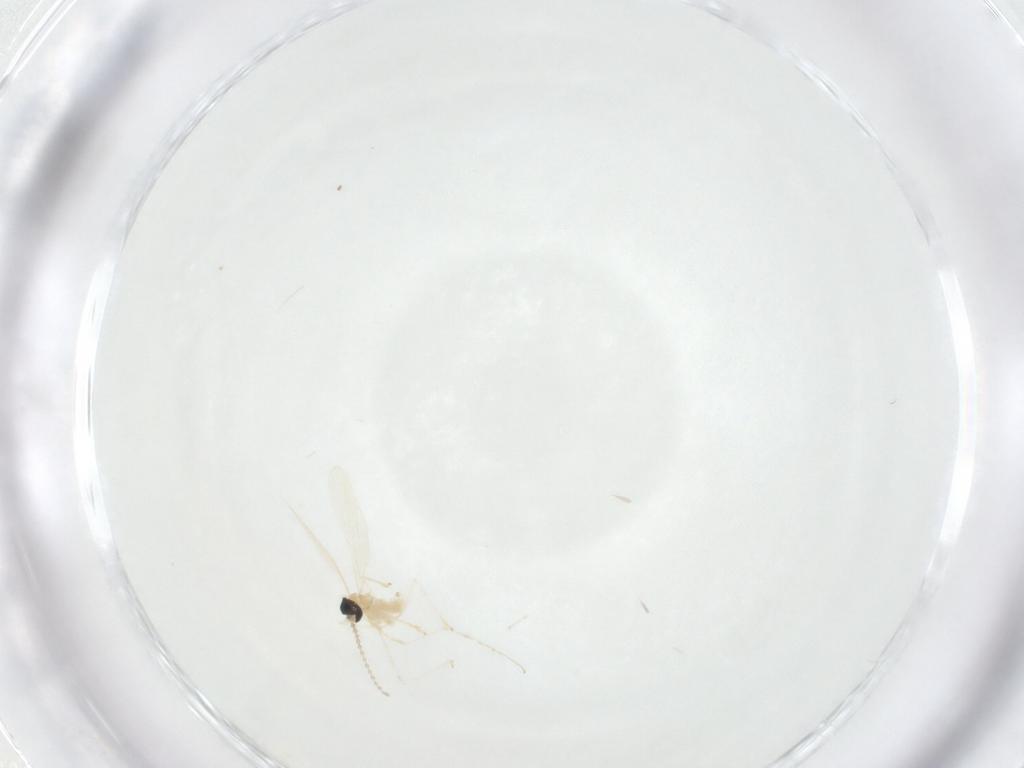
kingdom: Animalia
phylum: Arthropoda
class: Insecta
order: Diptera
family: Cecidomyiidae
